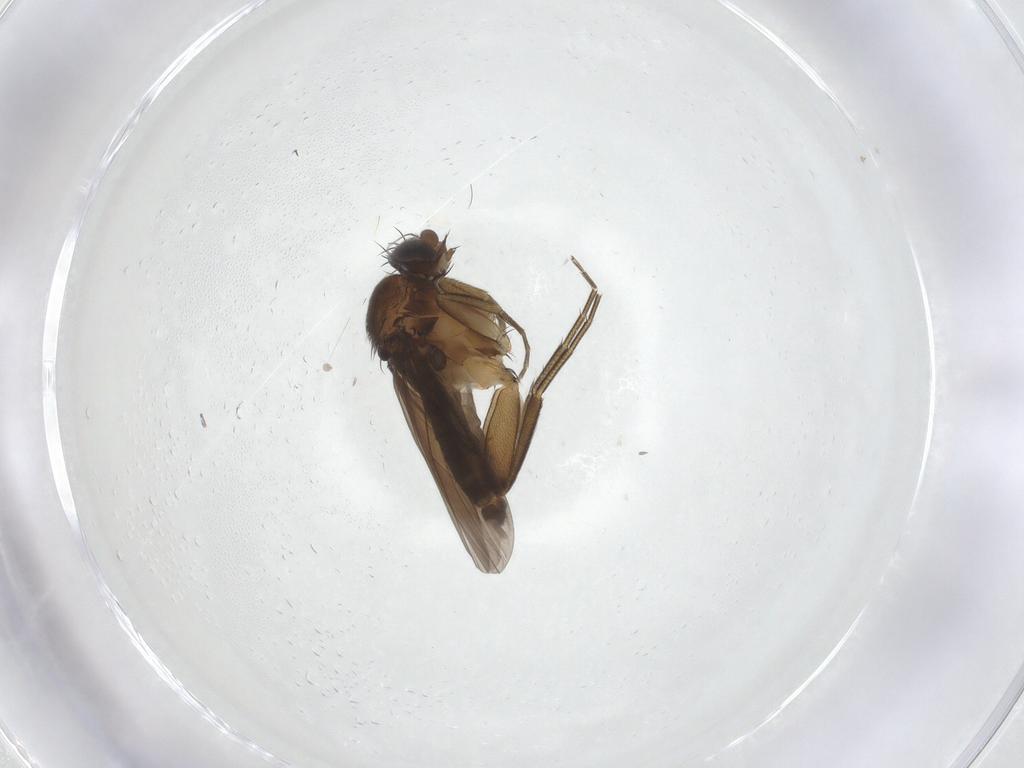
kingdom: Animalia
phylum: Arthropoda
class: Insecta
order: Diptera
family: Phoridae
